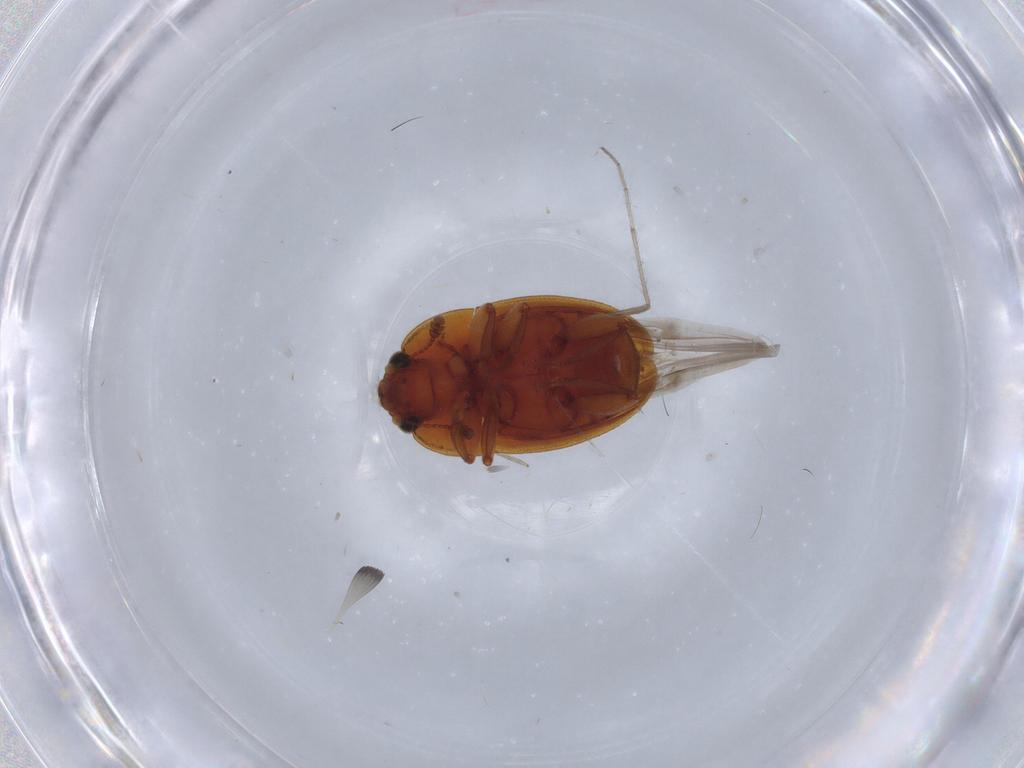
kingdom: Animalia
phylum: Arthropoda
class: Insecta
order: Coleoptera
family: Nitidulidae
